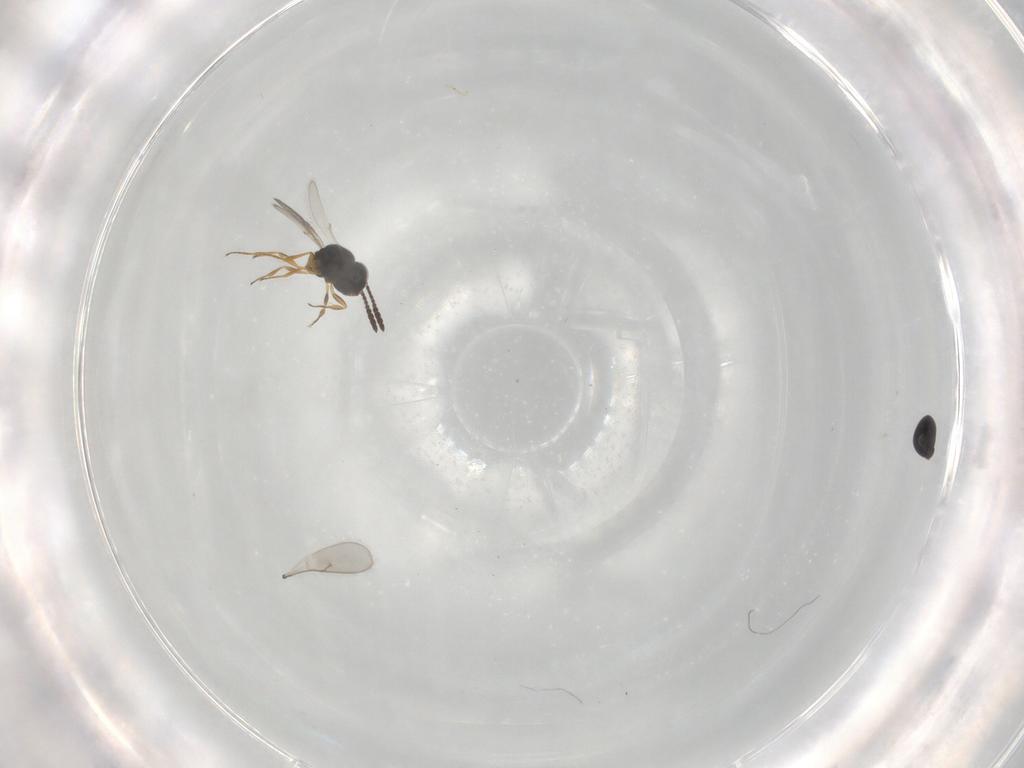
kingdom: Animalia
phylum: Arthropoda
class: Insecta
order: Hymenoptera
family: Scelionidae
